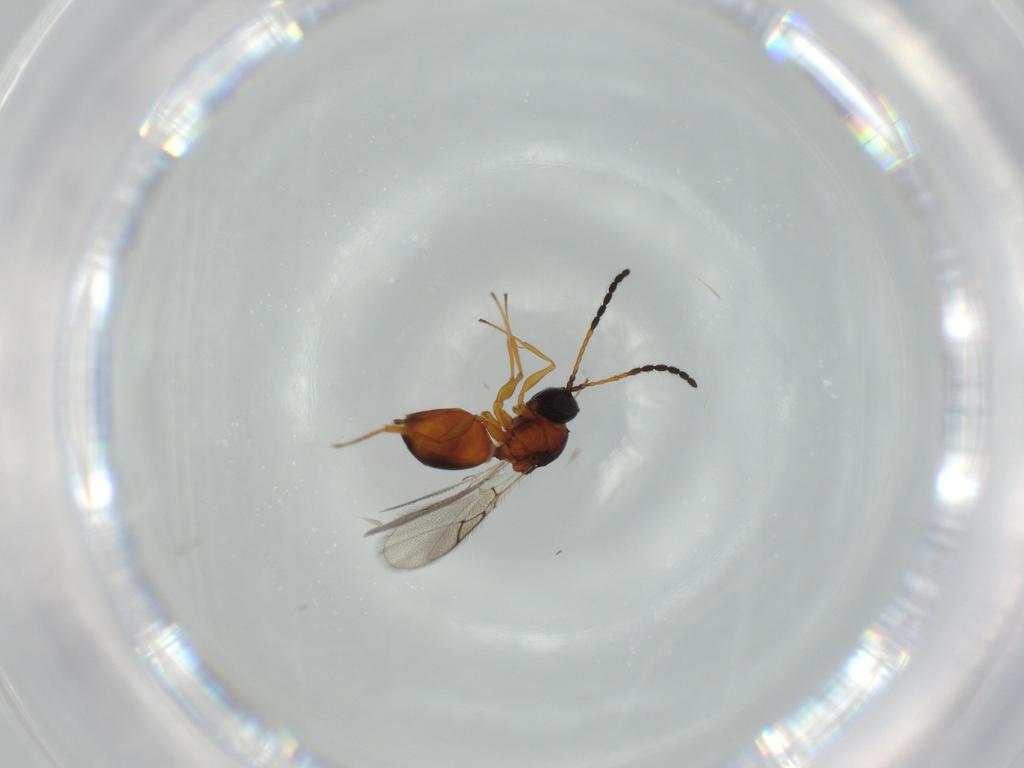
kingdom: Animalia
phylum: Arthropoda
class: Insecta
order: Hymenoptera
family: Figitidae
